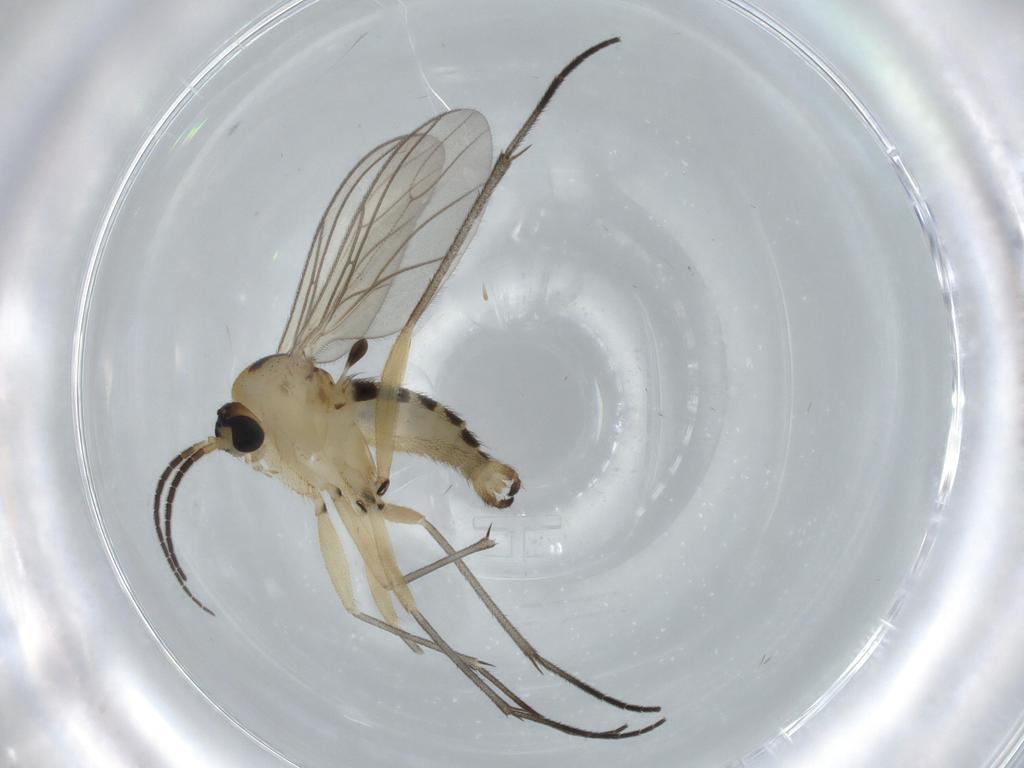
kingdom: Animalia
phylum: Arthropoda
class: Insecta
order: Diptera
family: Sciaridae
